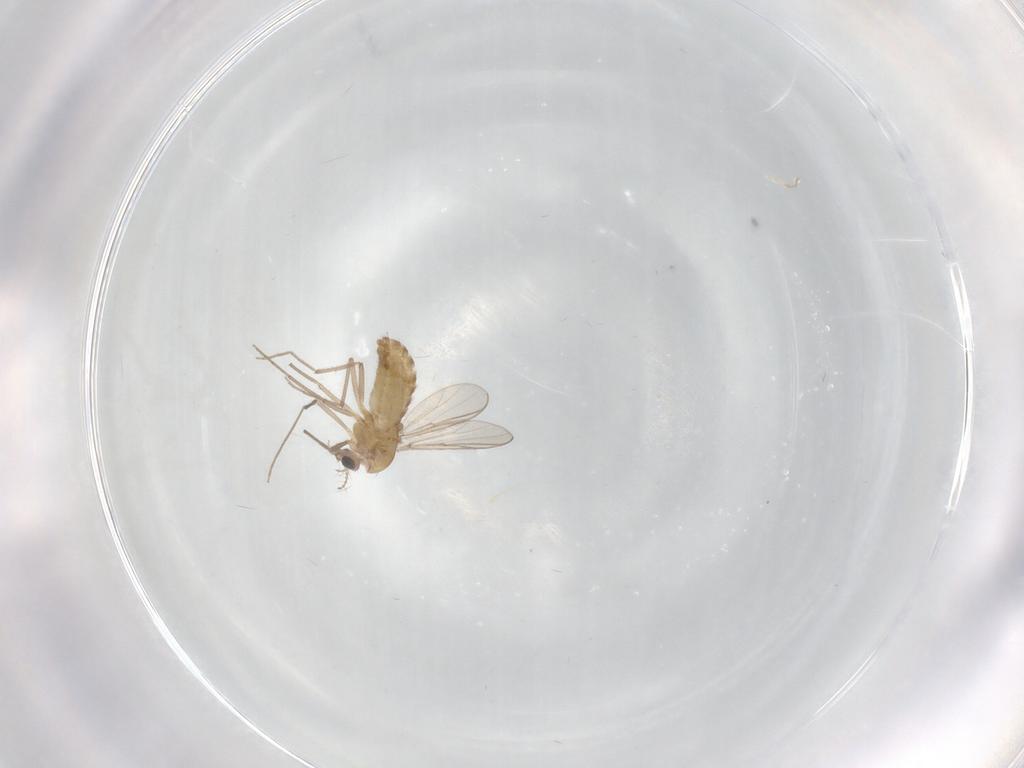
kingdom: Animalia
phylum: Arthropoda
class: Insecta
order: Diptera
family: Chironomidae
